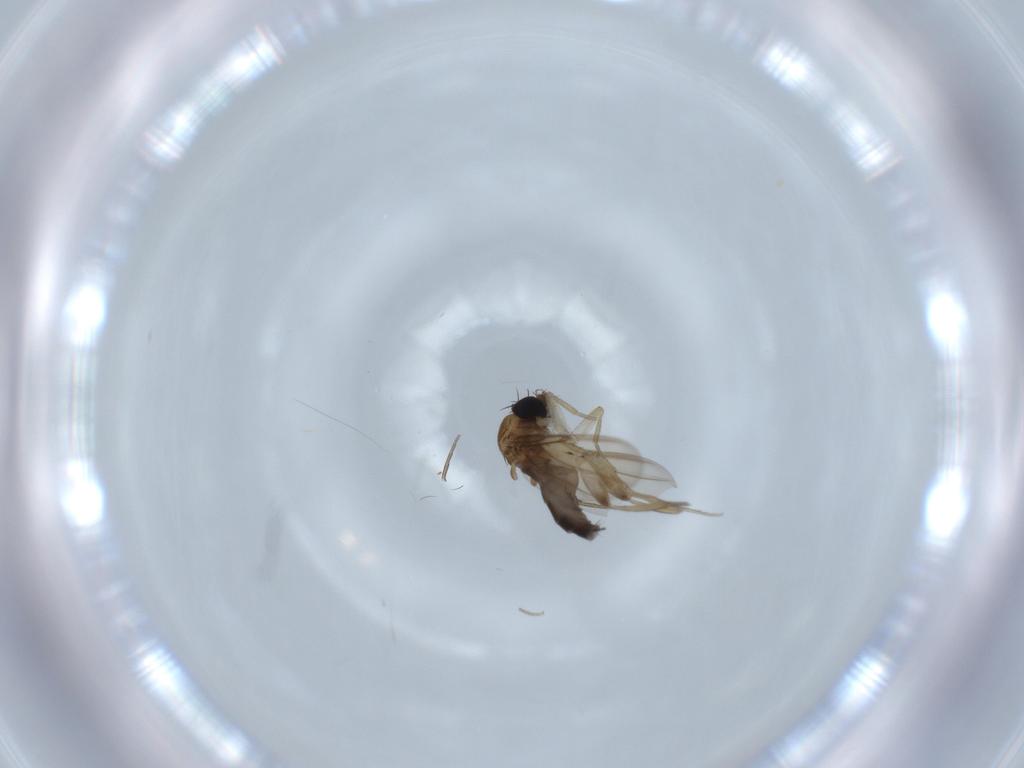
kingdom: Animalia
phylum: Arthropoda
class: Insecta
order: Diptera
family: Phoridae
